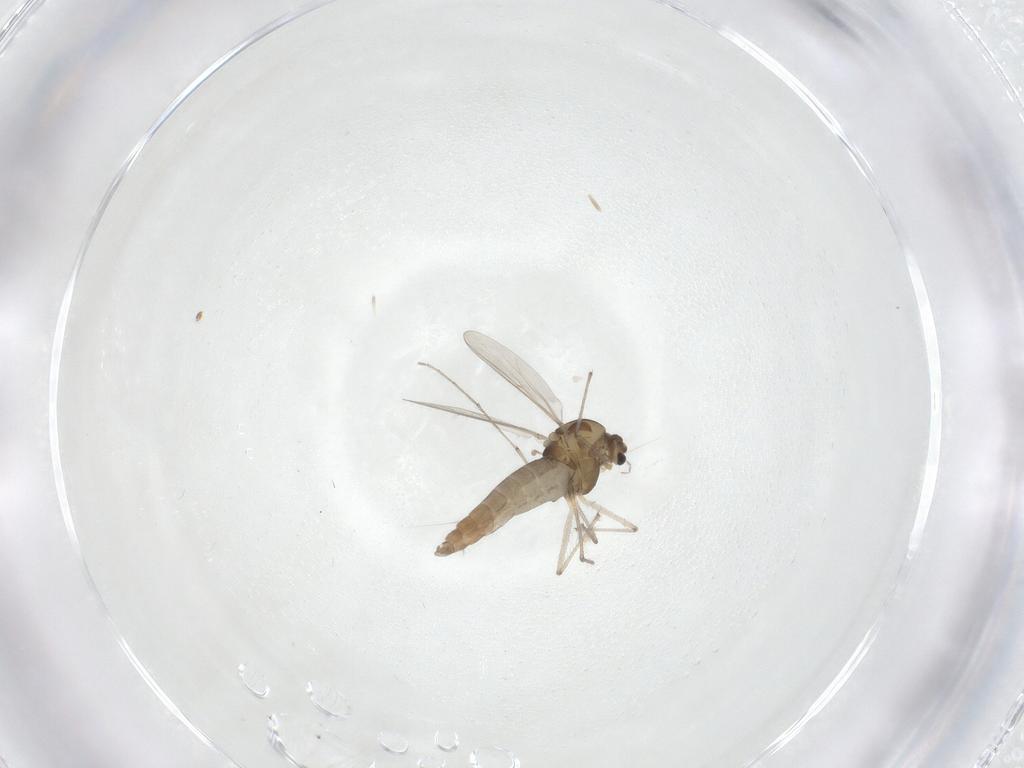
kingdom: Animalia
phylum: Arthropoda
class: Insecta
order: Diptera
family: Chironomidae
